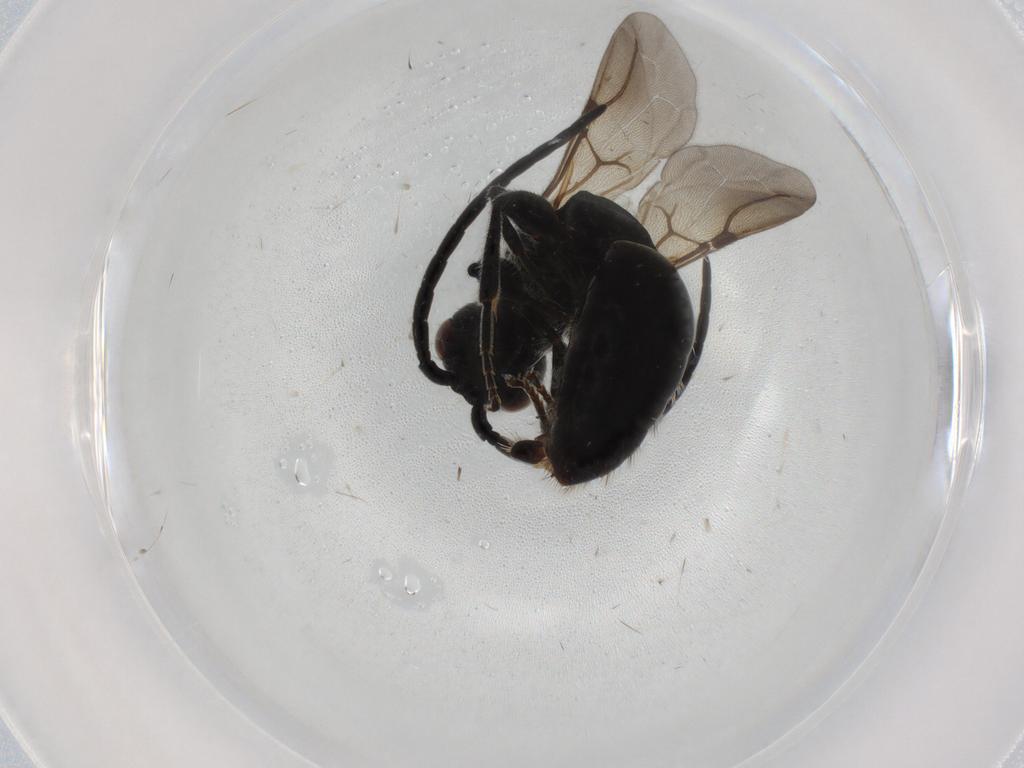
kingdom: Animalia
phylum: Arthropoda
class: Insecta
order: Hymenoptera
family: Bethylidae
